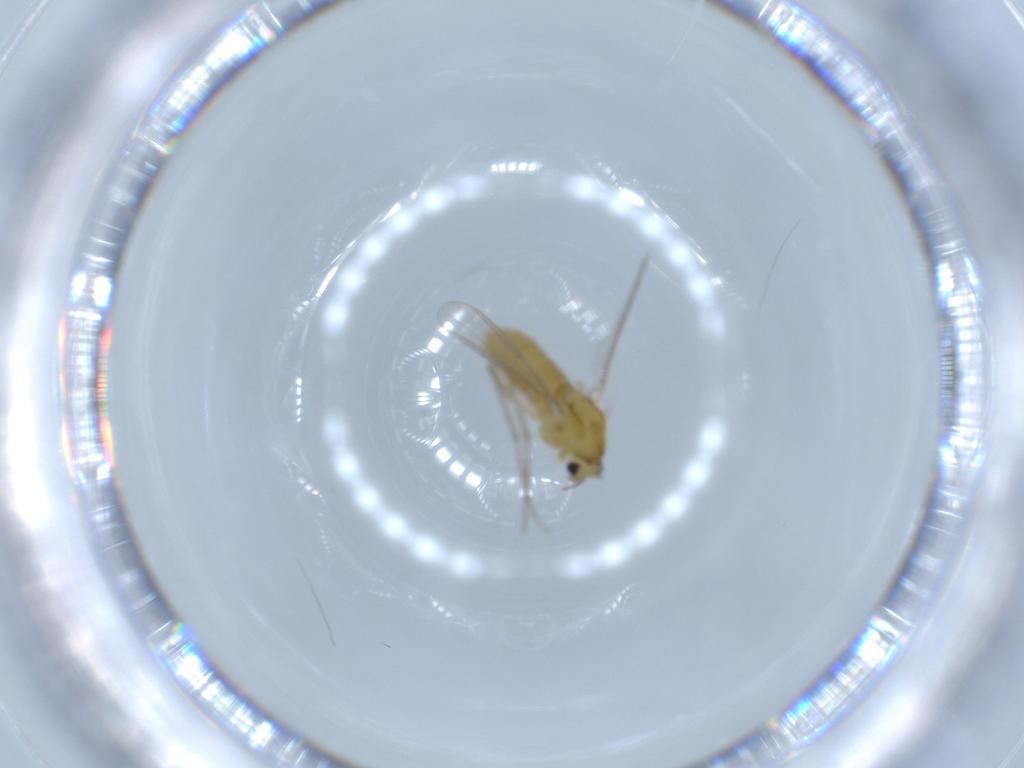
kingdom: Animalia
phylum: Arthropoda
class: Insecta
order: Diptera
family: Chironomidae
